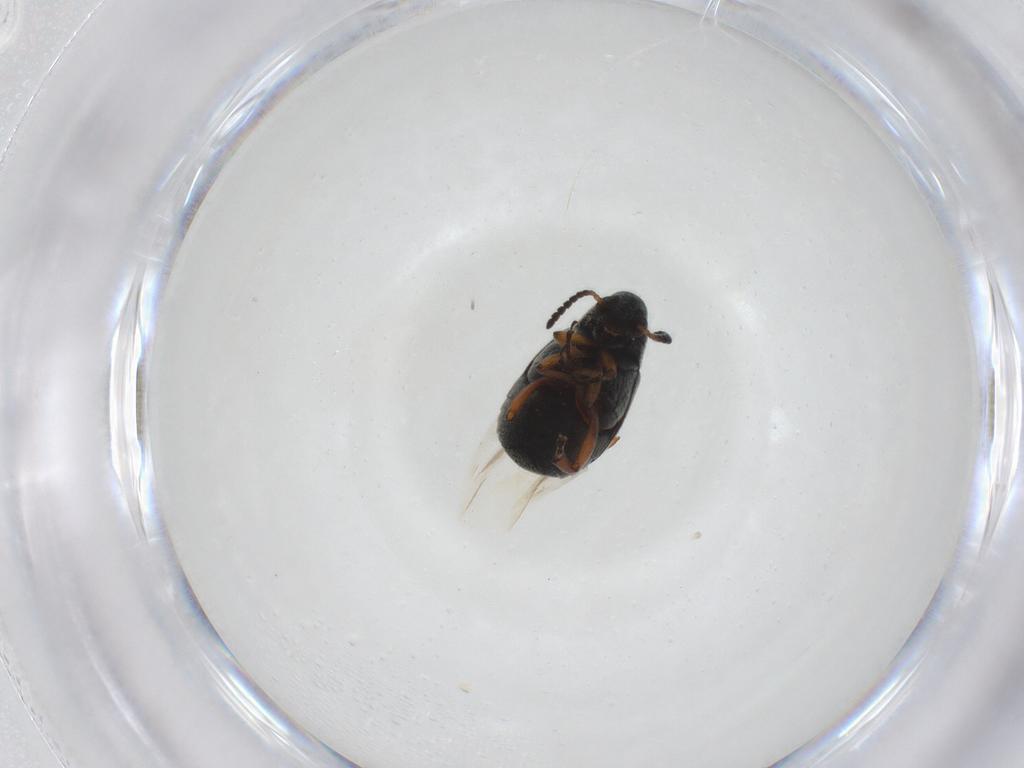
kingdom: Animalia
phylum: Arthropoda
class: Insecta
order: Coleoptera
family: Chrysomelidae
